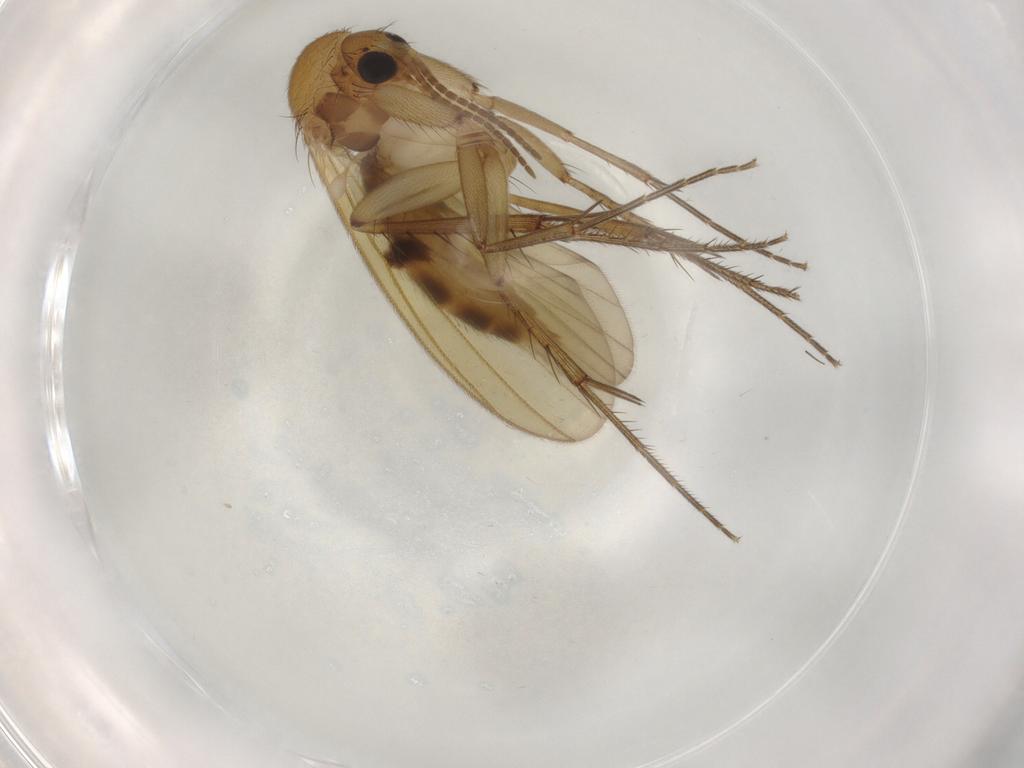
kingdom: Animalia
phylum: Arthropoda
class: Insecta
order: Diptera
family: Mycetophilidae
